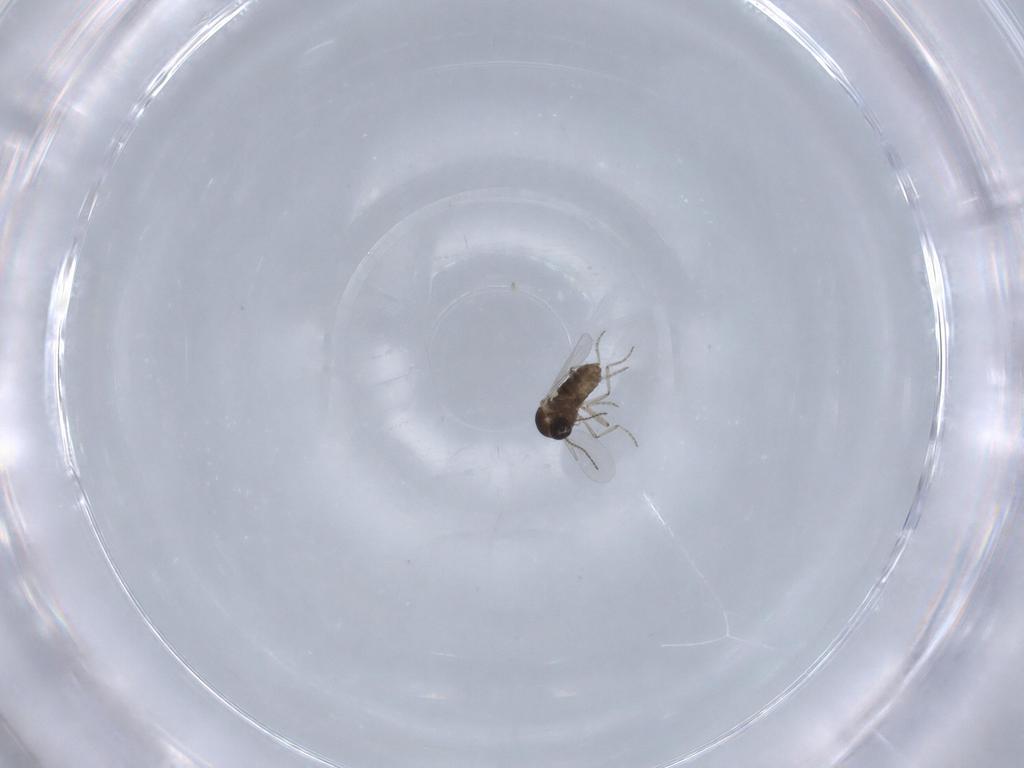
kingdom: Animalia
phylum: Arthropoda
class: Insecta
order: Diptera
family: Ceratopogonidae
